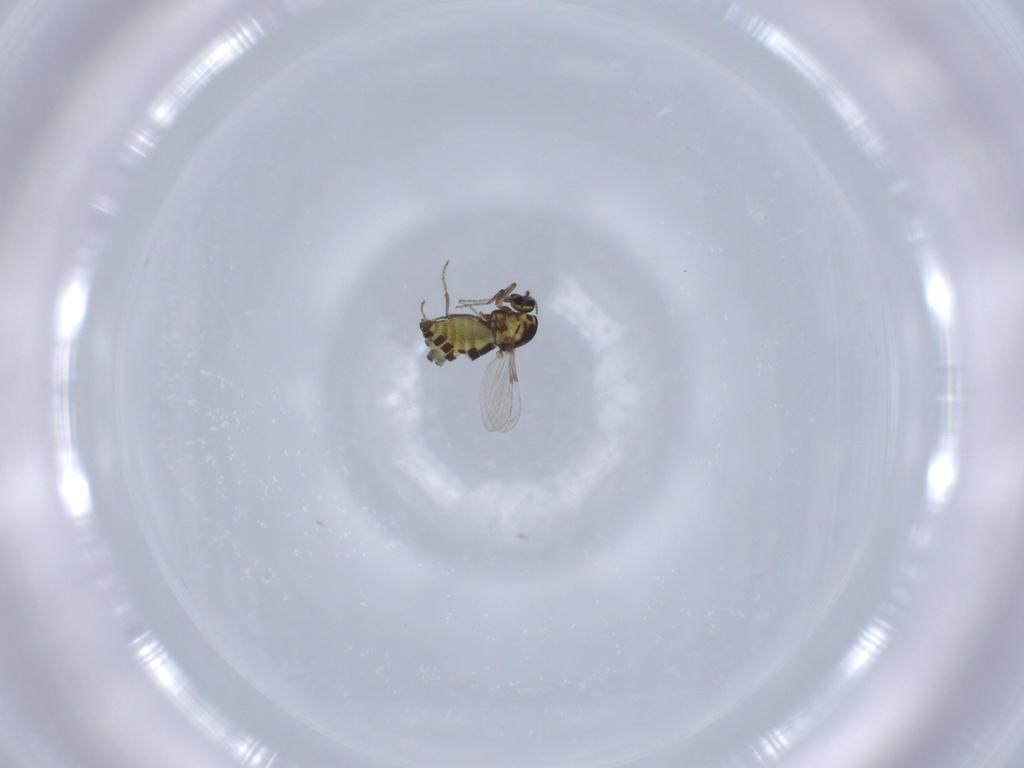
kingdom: Animalia
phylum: Arthropoda
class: Insecta
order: Diptera
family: Ceratopogonidae
